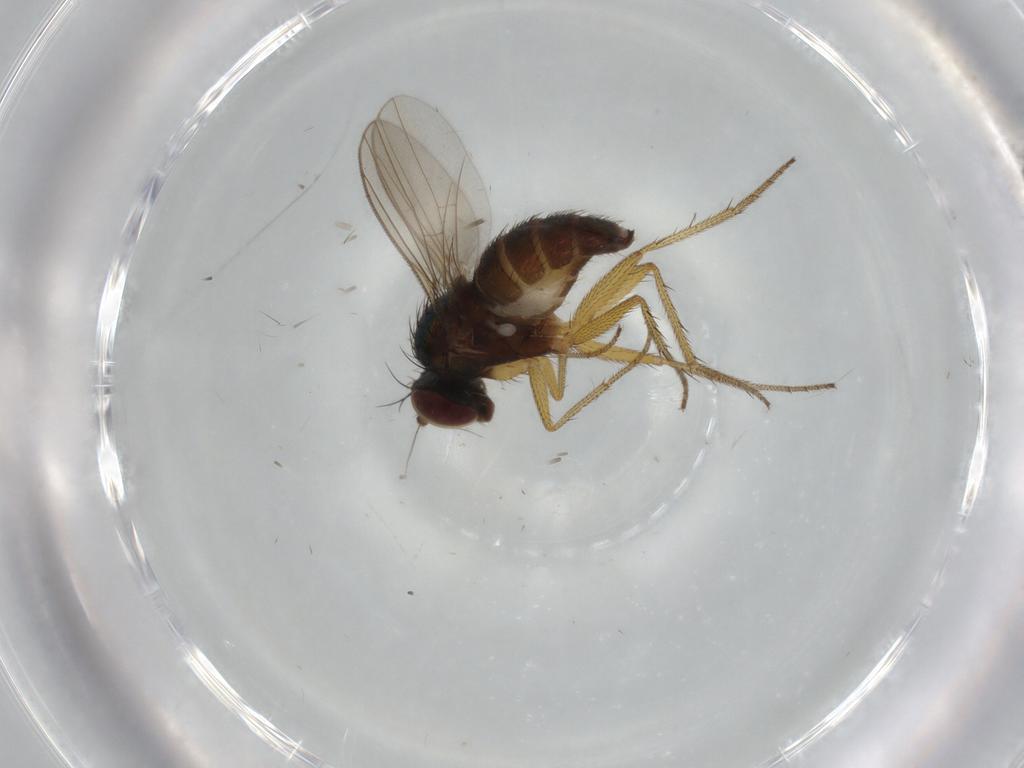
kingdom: Animalia
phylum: Arthropoda
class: Insecta
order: Diptera
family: Dolichopodidae
